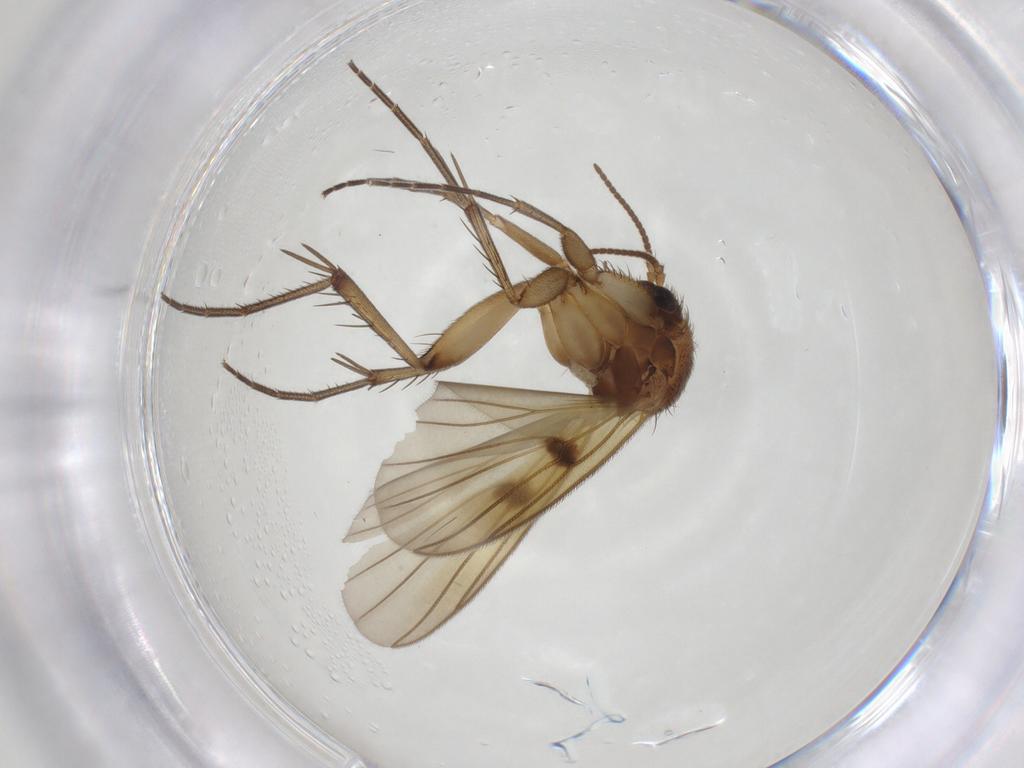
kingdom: Animalia
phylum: Arthropoda
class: Insecta
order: Diptera
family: Mycetophilidae
